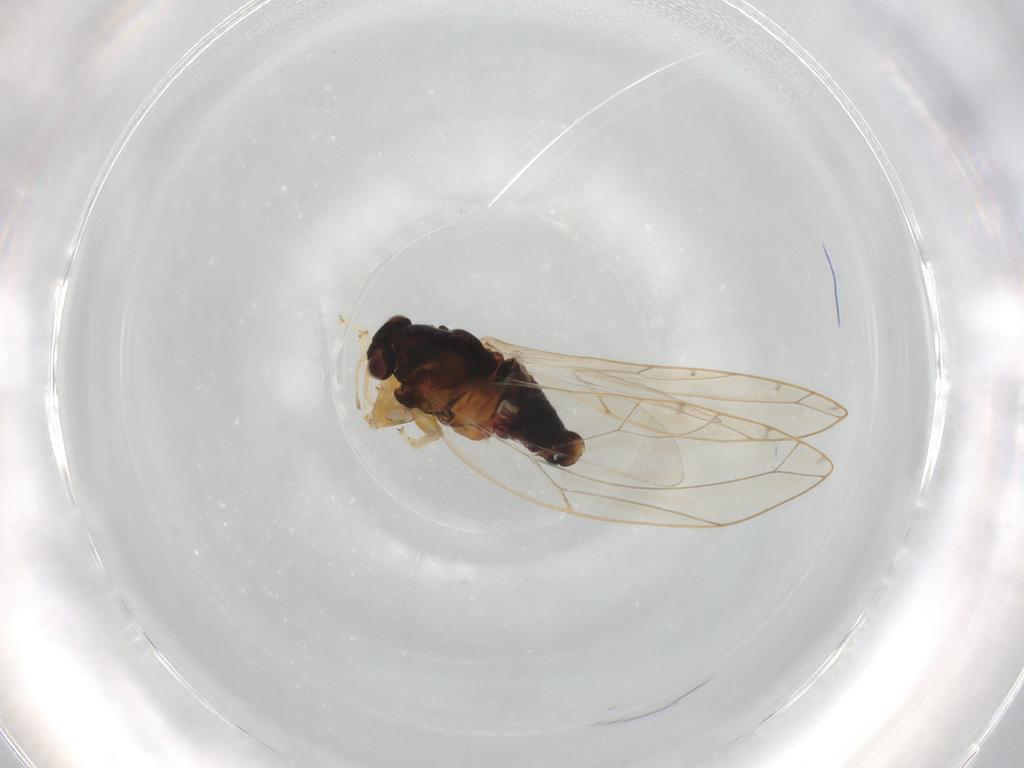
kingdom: Animalia
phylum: Arthropoda
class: Insecta
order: Hemiptera
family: Triozidae
